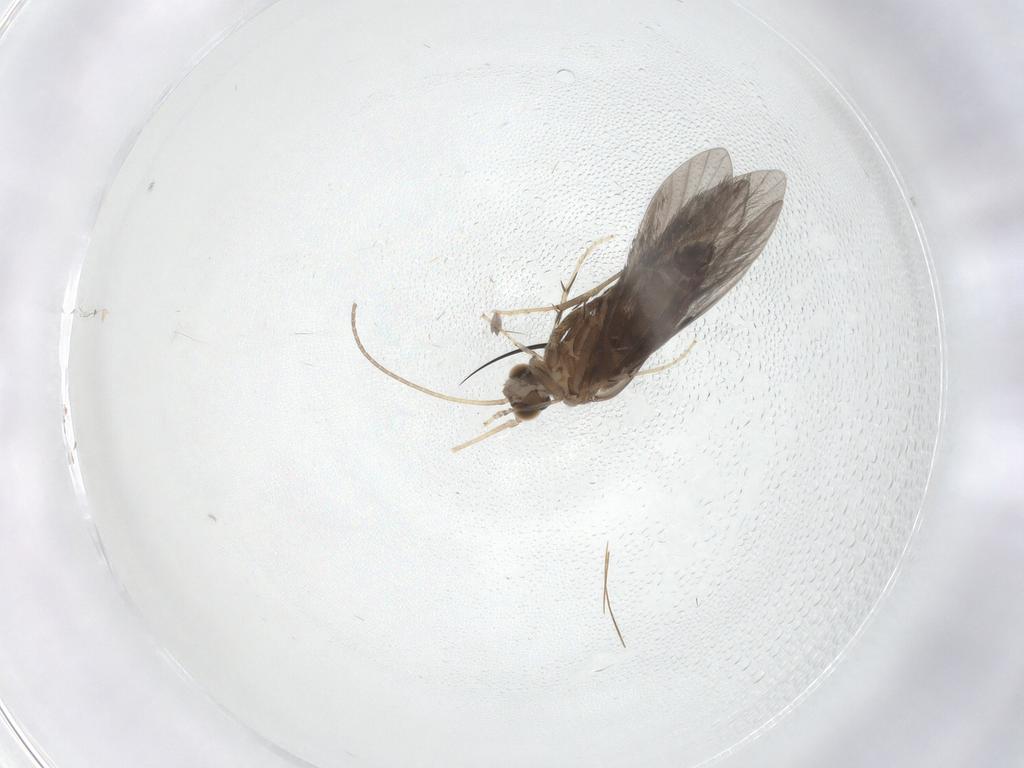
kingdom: Animalia
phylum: Arthropoda
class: Insecta
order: Trichoptera
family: Glossosomatidae
